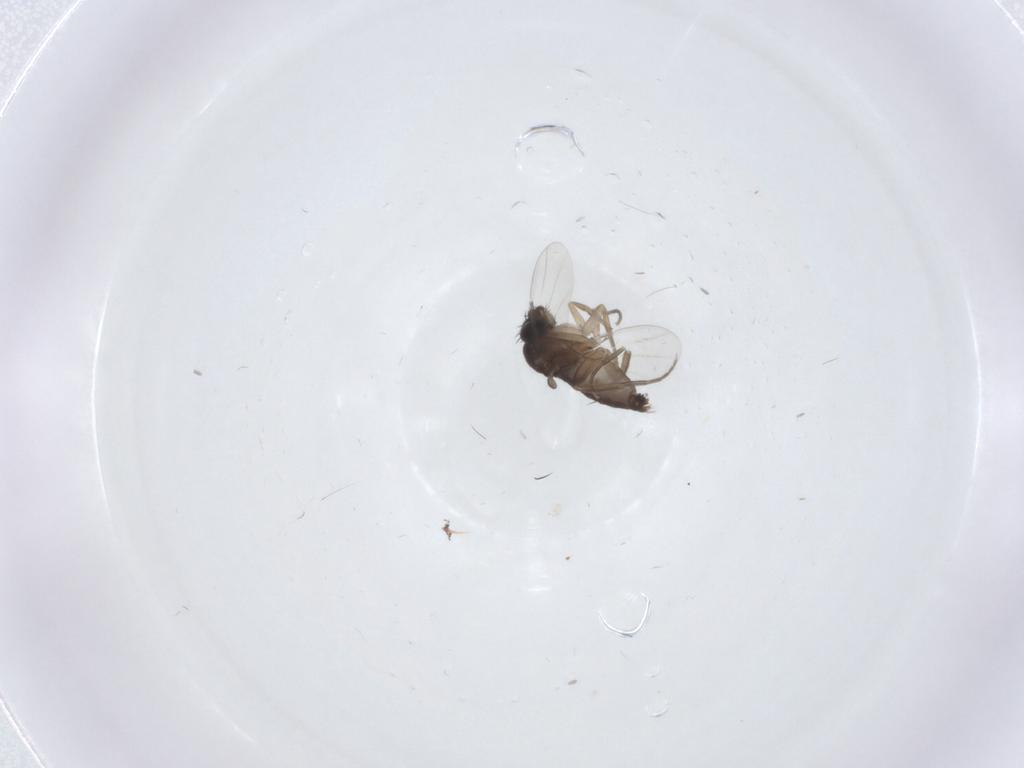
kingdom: Animalia
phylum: Arthropoda
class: Insecta
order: Diptera
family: Phoridae
